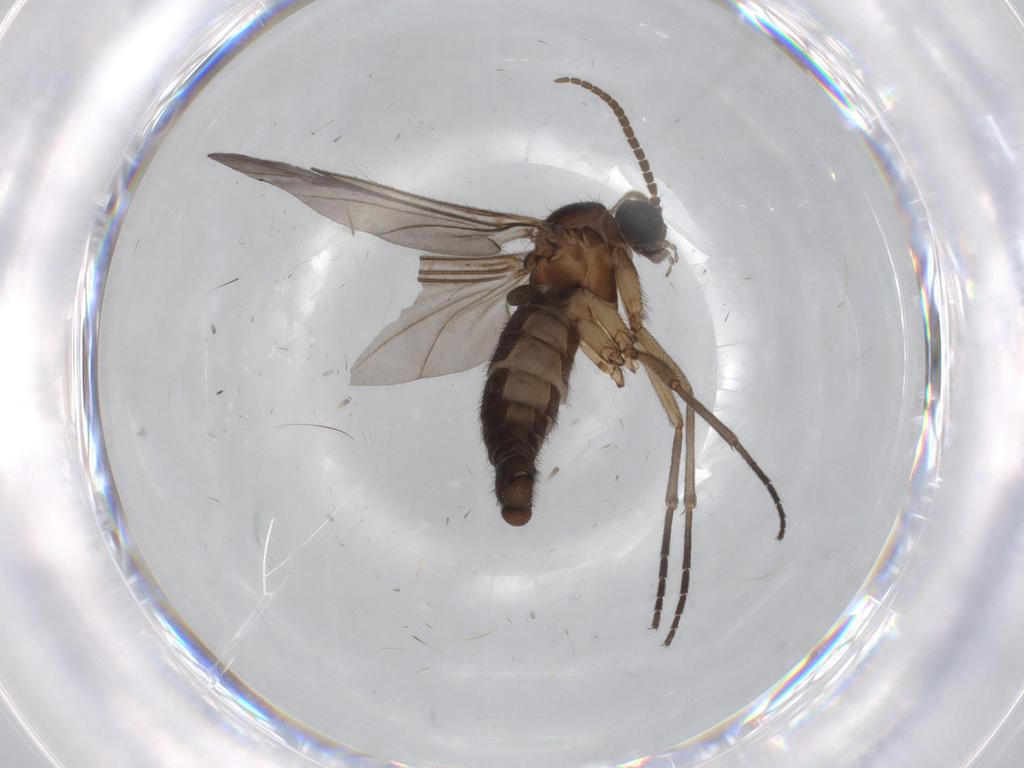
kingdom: Animalia
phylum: Arthropoda
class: Insecta
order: Diptera
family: Sciaridae
